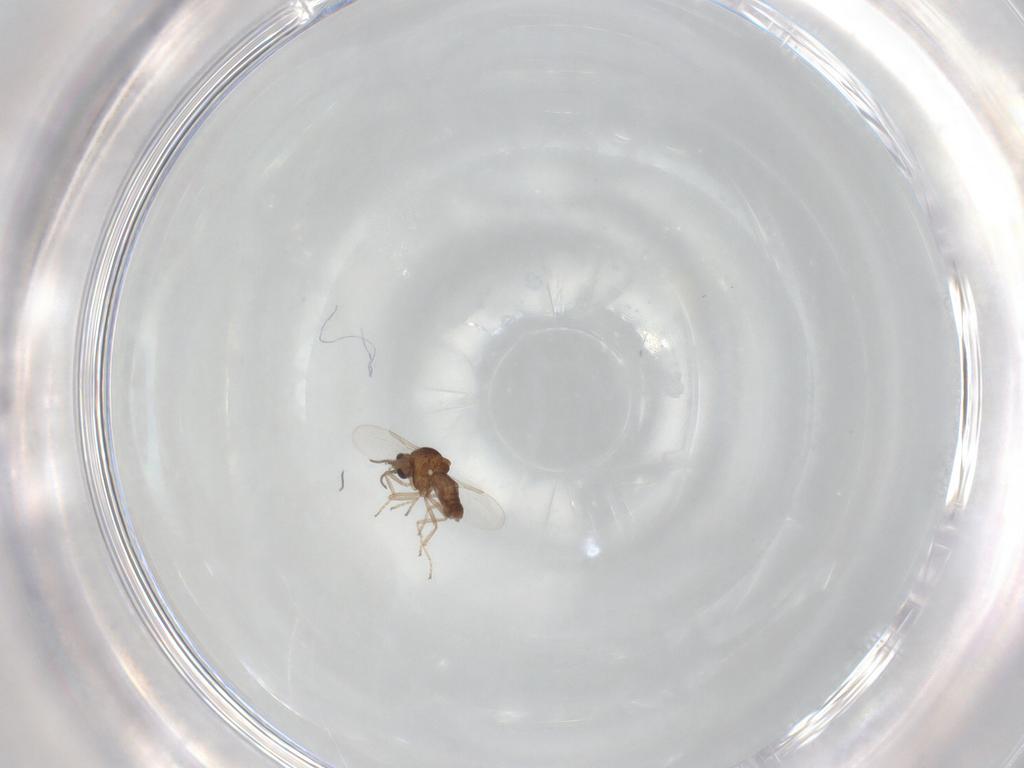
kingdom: Animalia
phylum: Arthropoda
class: Insecta
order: Diptera
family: Ceratopogonidae
